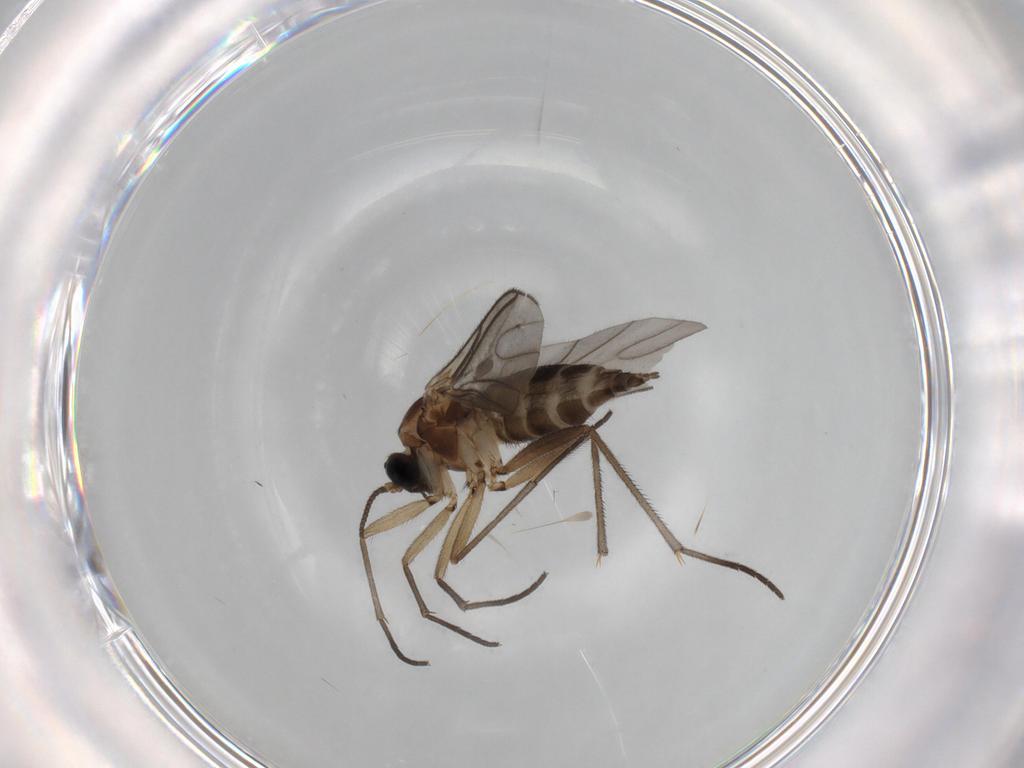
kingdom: Animalia
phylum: Arthropoda
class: Insecta
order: Diptera
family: Sciaridae
